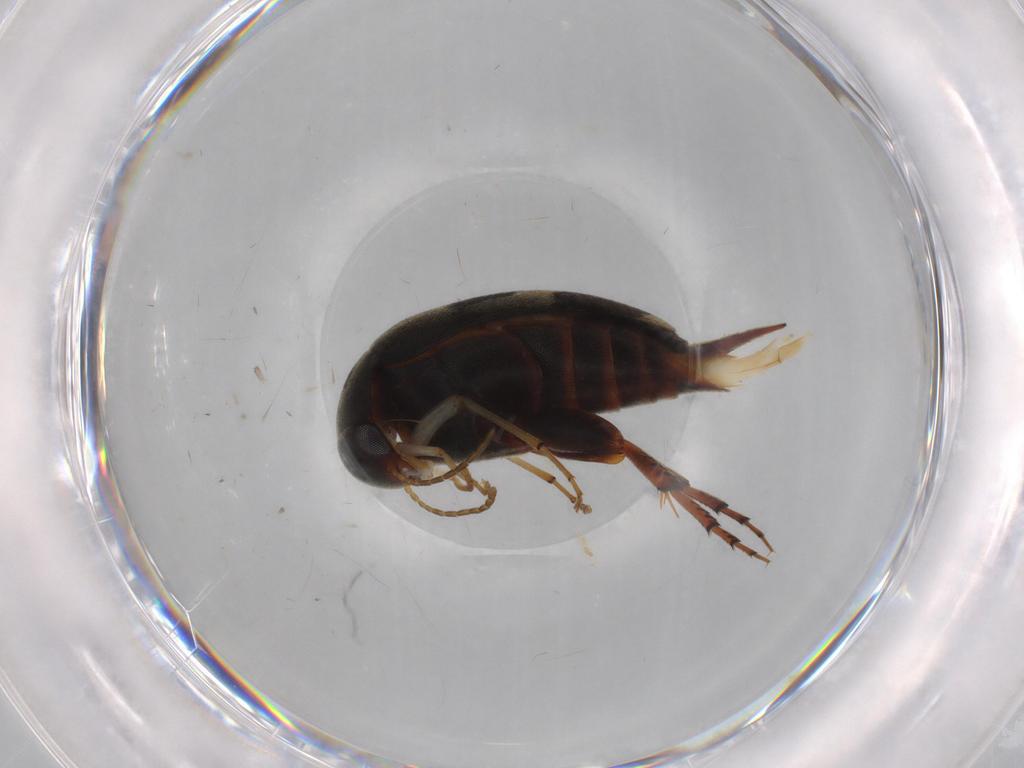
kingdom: Animalia
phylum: Arthropoda
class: Insecta
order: Coleoptera
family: Mordellidae
